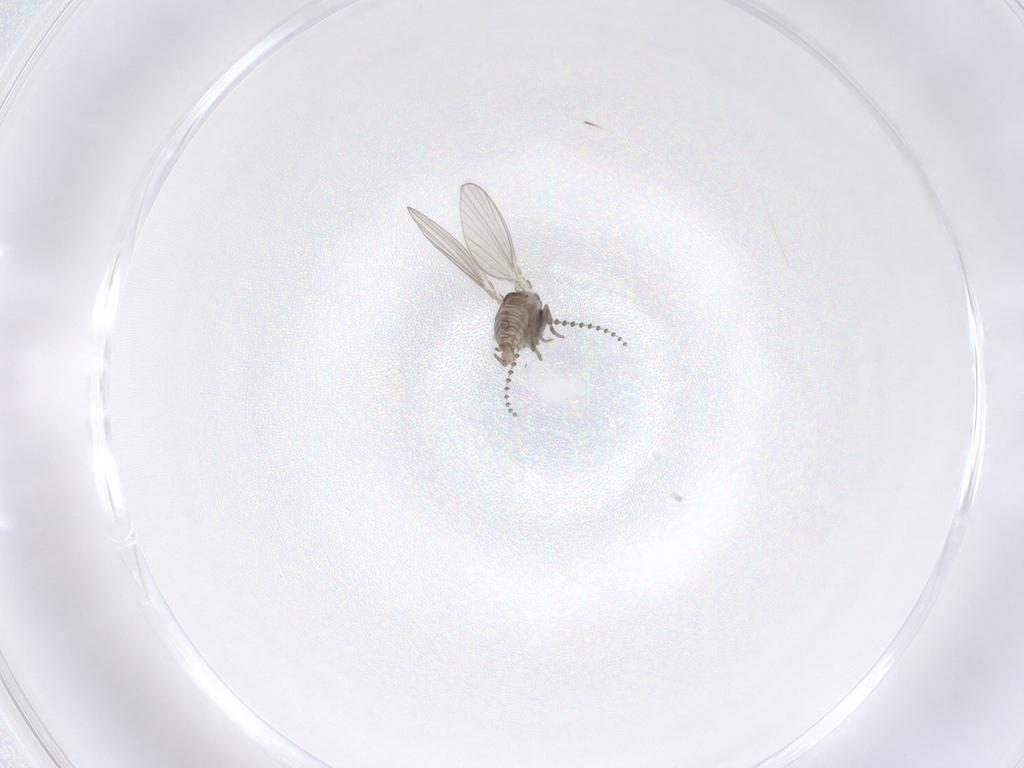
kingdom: Animalia
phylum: Arthropoda
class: Insecta
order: Diptera
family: Psychodidae
